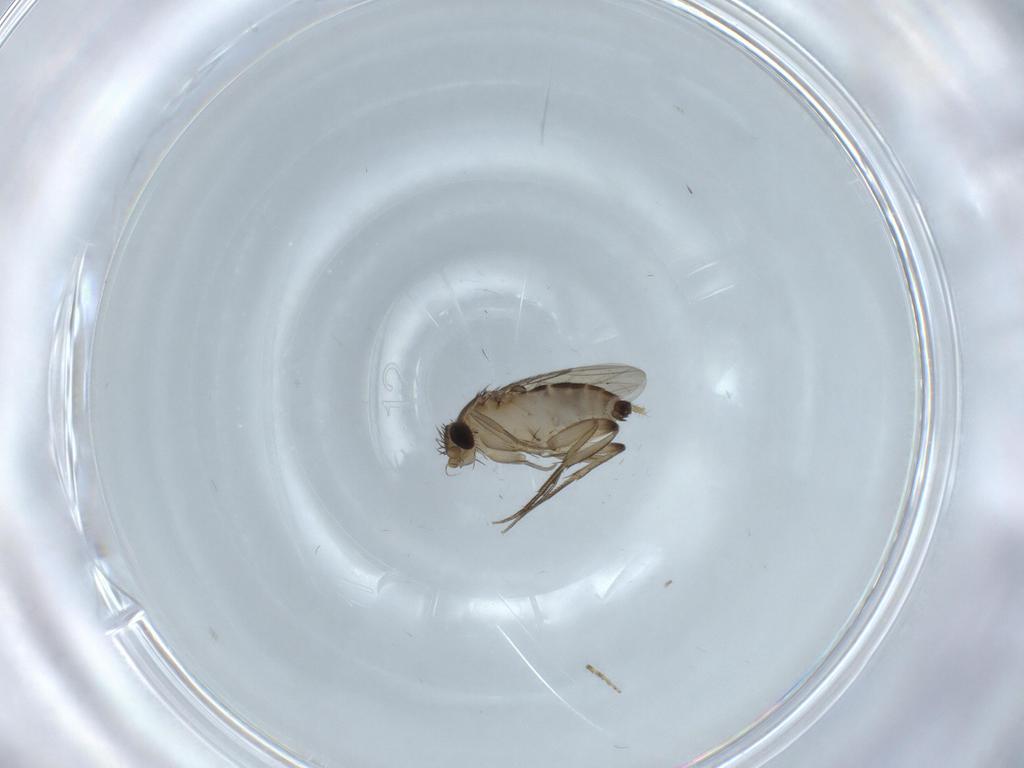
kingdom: Animalia
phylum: Arthropoda
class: Insecta
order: Diptera
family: Phoridae
